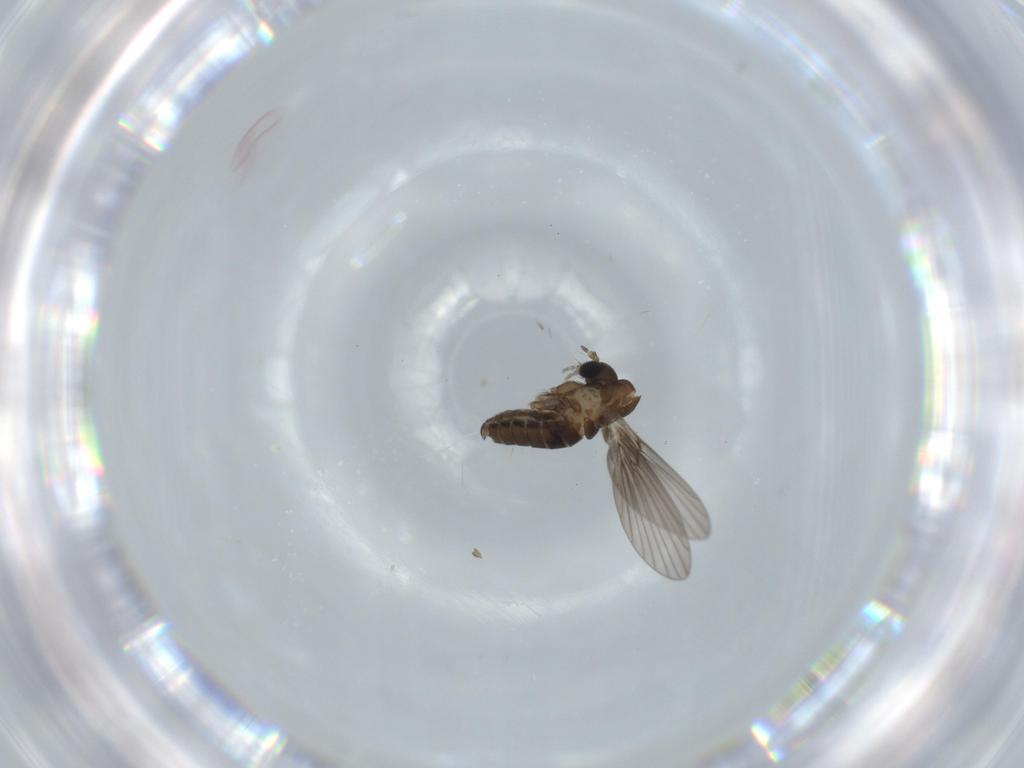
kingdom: Animalia
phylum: Arthropoda
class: Insecta
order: Diptera
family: Psychodidae
